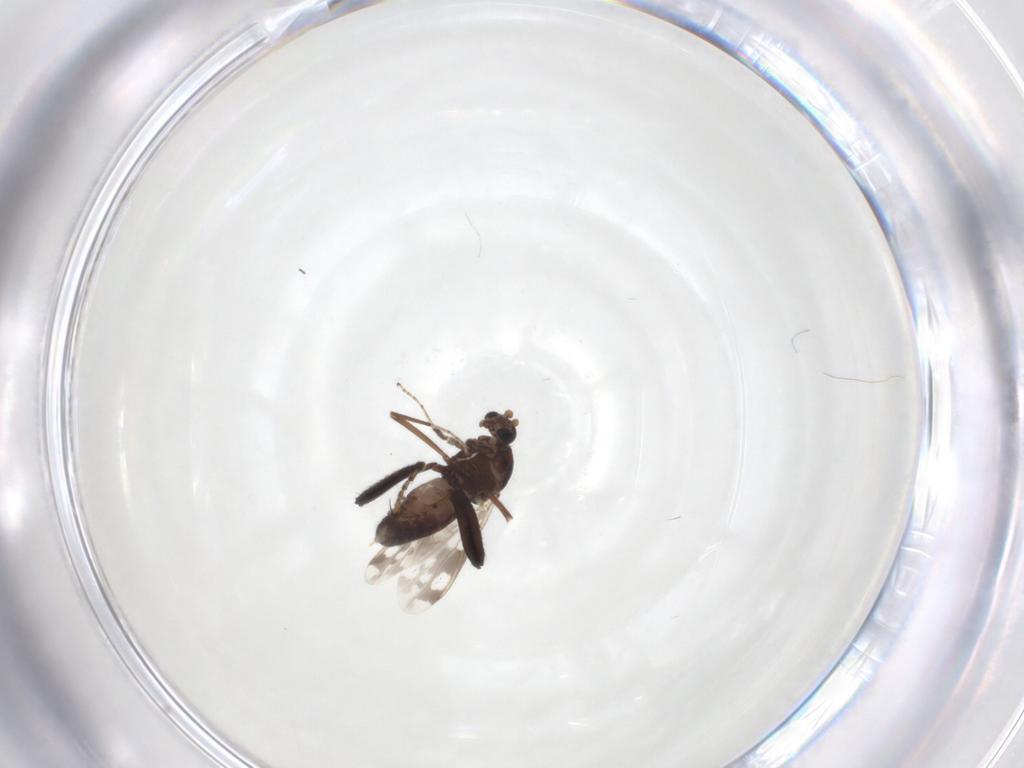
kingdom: Animalia
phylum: Arthropoda
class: Insecta
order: Diptera
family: Ceratopogonidae
